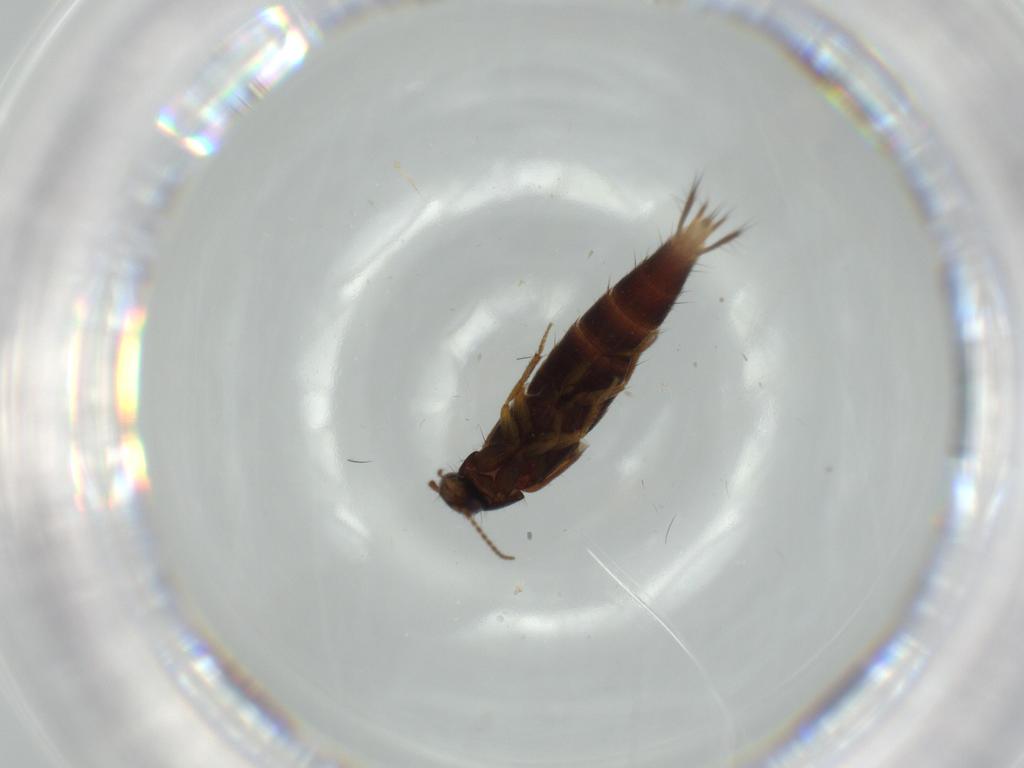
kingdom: Animalia
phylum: Arthropoda
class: Insecta
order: Coleoptera
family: Staphylinidae
